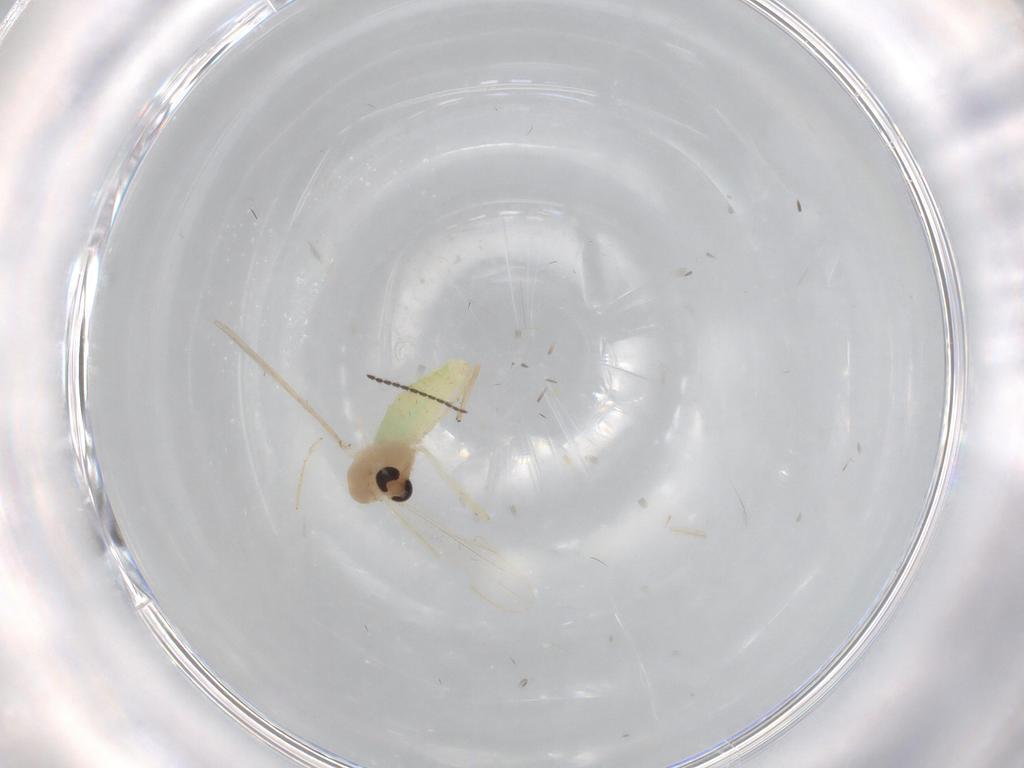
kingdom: Animalia
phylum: Arthropoda
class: Insecta
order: Diptera
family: Chironomidae
